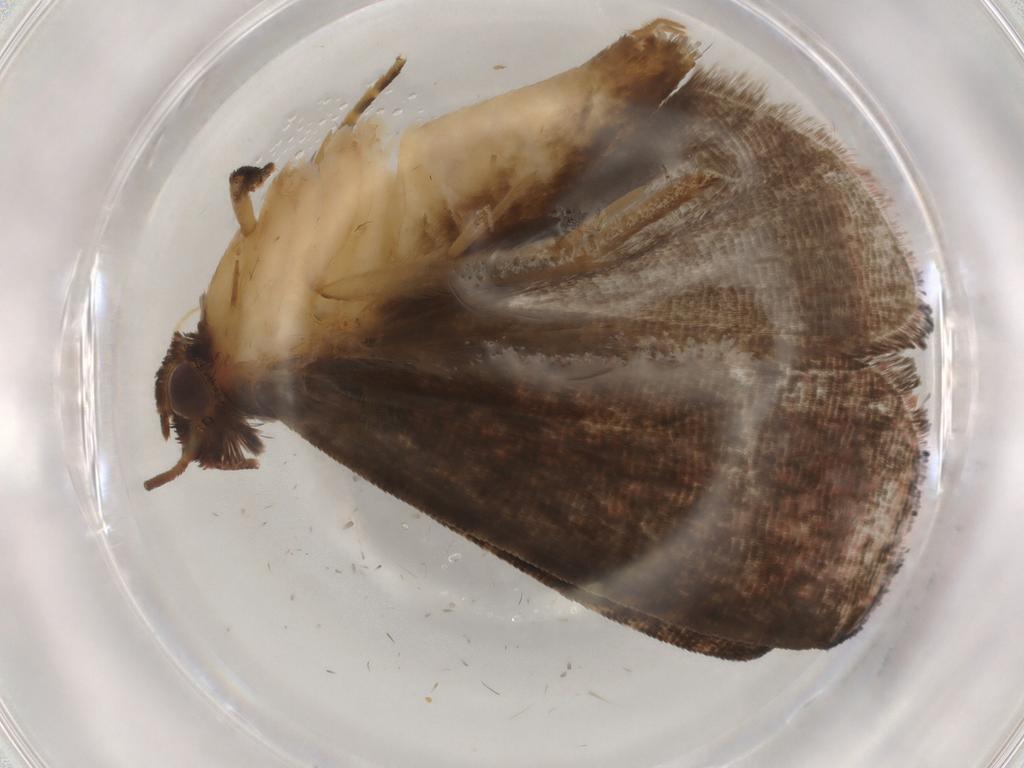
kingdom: Animalia
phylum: Arthropoda
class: Insecta
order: Lepidoptera
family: Tortricidae
